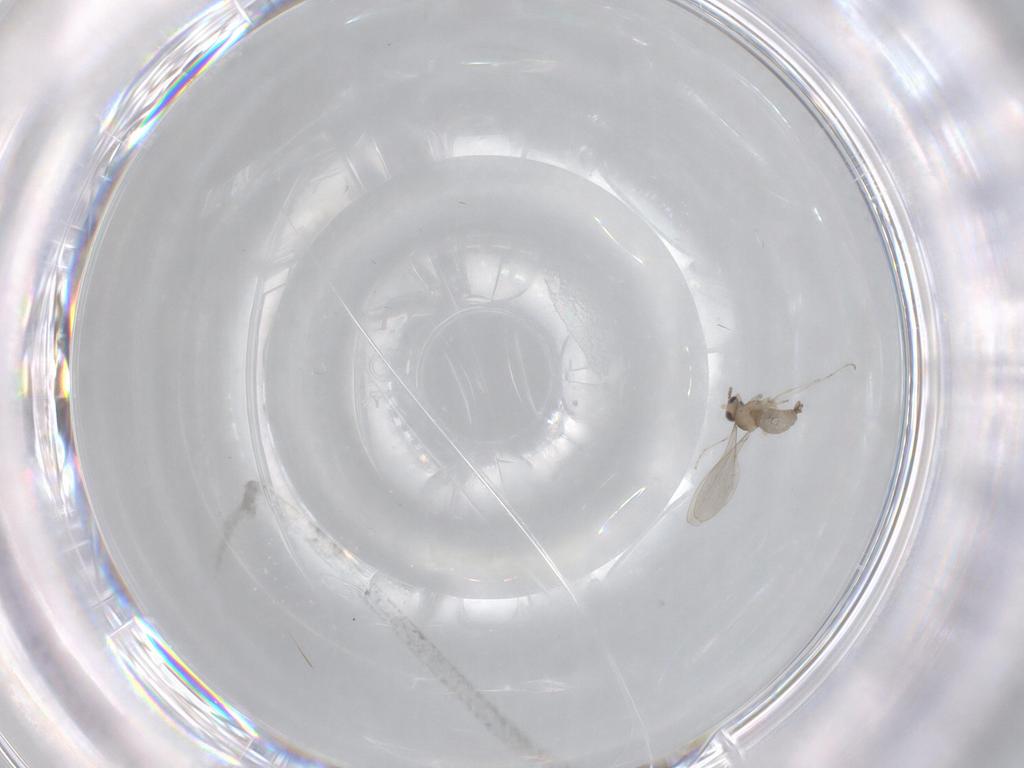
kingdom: Animalia
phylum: Arthropoda
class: Insecta
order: Diptera
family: Cecidomyiidae
